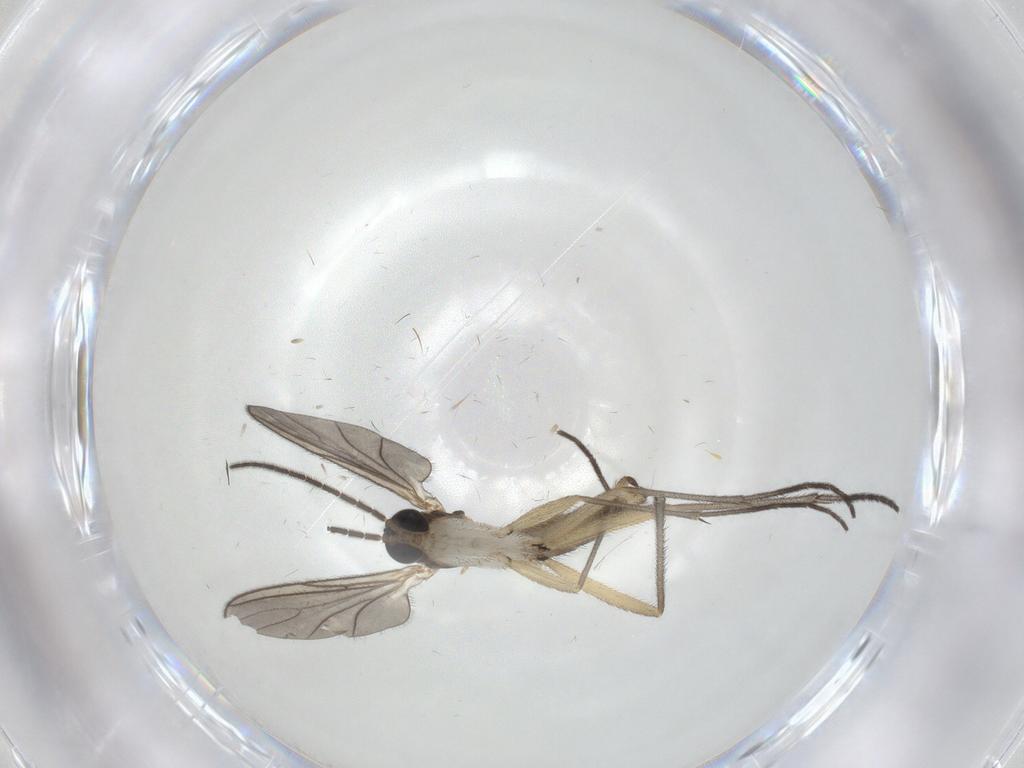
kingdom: Animalia
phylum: Arthropoda
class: Insecta
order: Diptera
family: Sciaridae
